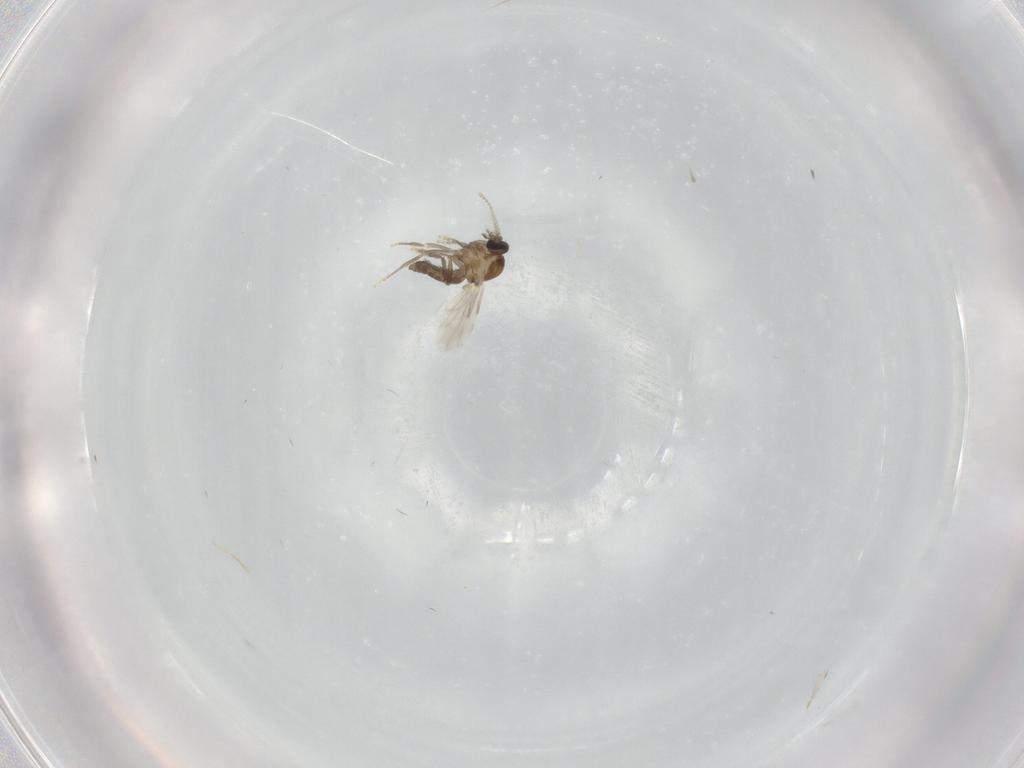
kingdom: Animalia
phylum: Arthropoda
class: Insecta
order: Diptera
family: Ceratopogonidae
